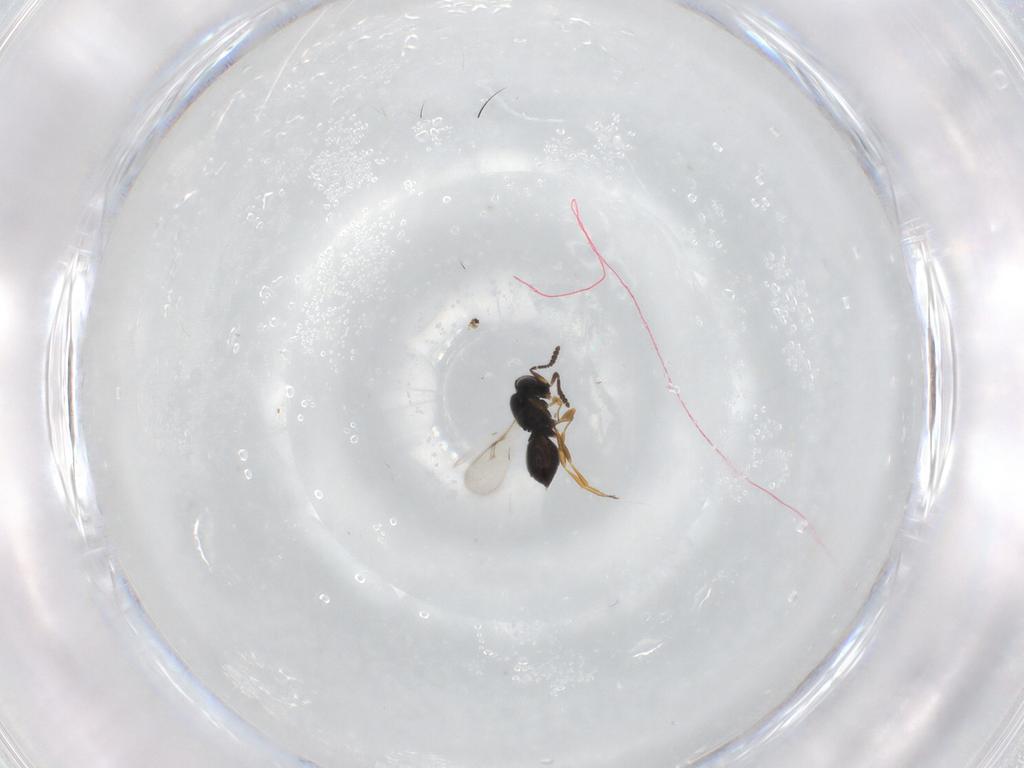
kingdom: Animalia
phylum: Arthropoda
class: Insecta
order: Hymenoptera
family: Scelionidae
